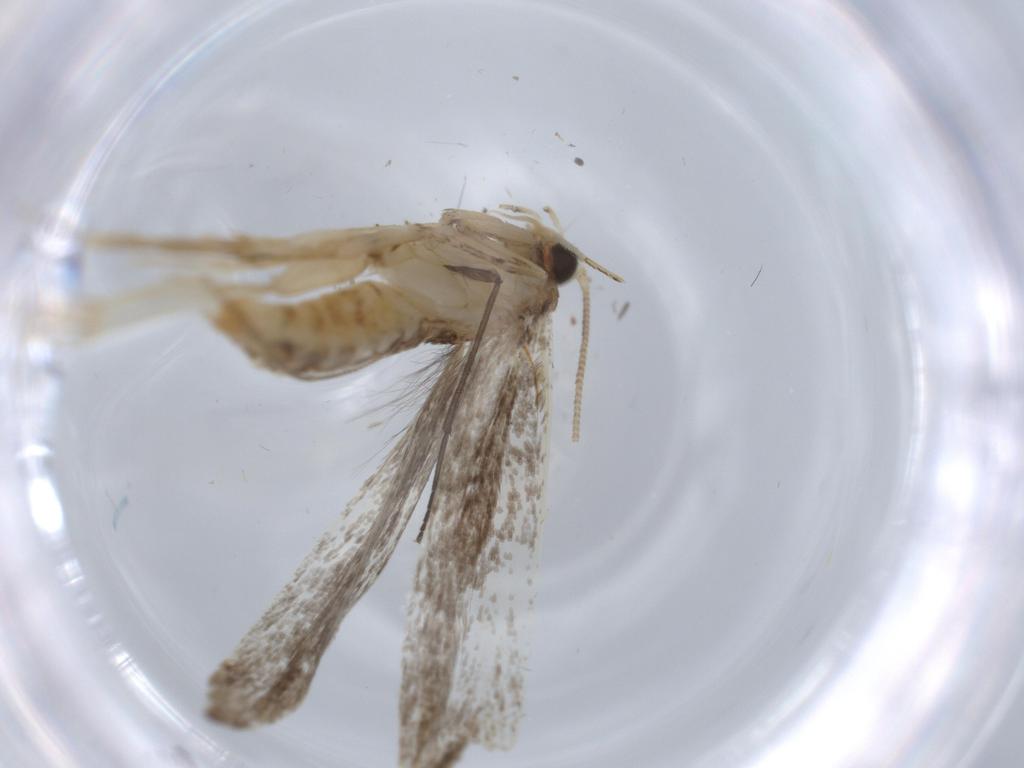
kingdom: Animalia
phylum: Arthropoda
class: Insecta
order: Lepidoptera
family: Tineidae
